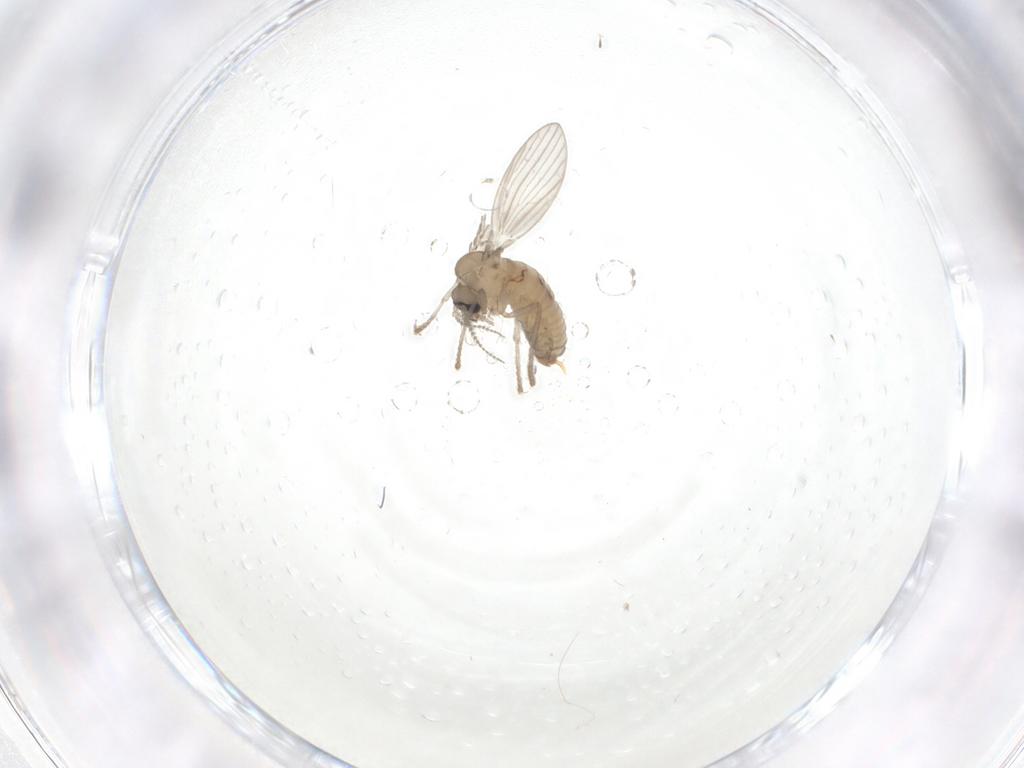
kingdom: Animalia
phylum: Arthropoda
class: Insecta
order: Diptera
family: Psychodidae
